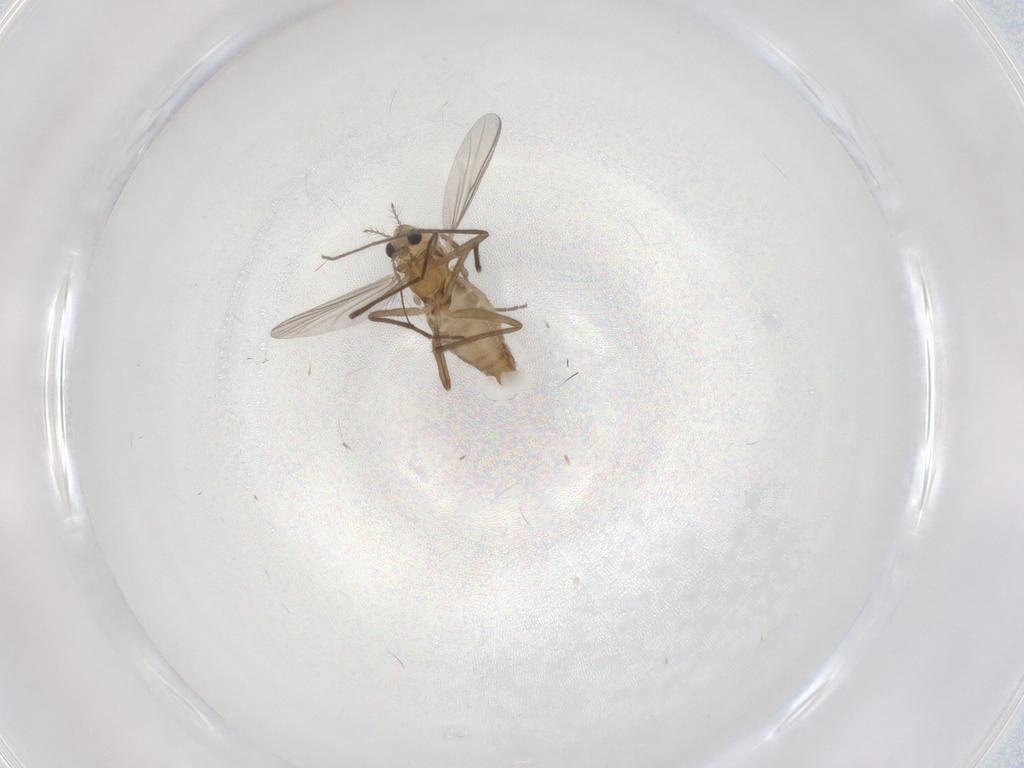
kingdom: Animalia
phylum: Arthropoda
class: Insecta
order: Diptera
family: Chironomidae
